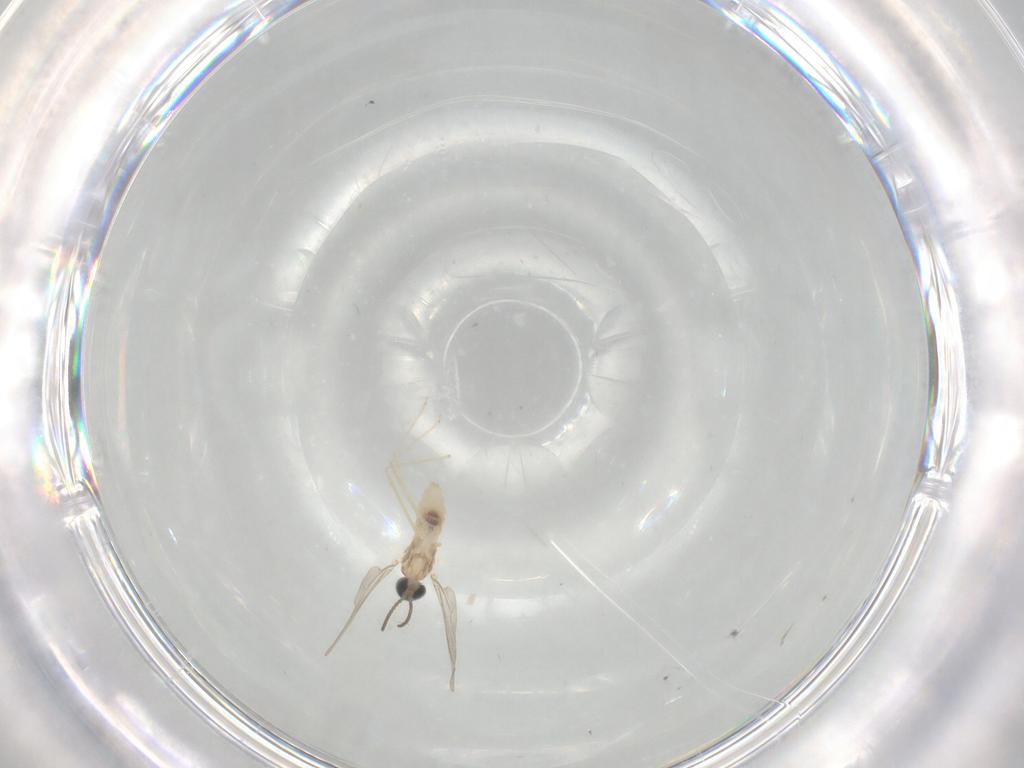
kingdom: Animalia
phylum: Arthropoda
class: Insecta
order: Diptera
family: Cecidomyiidae
